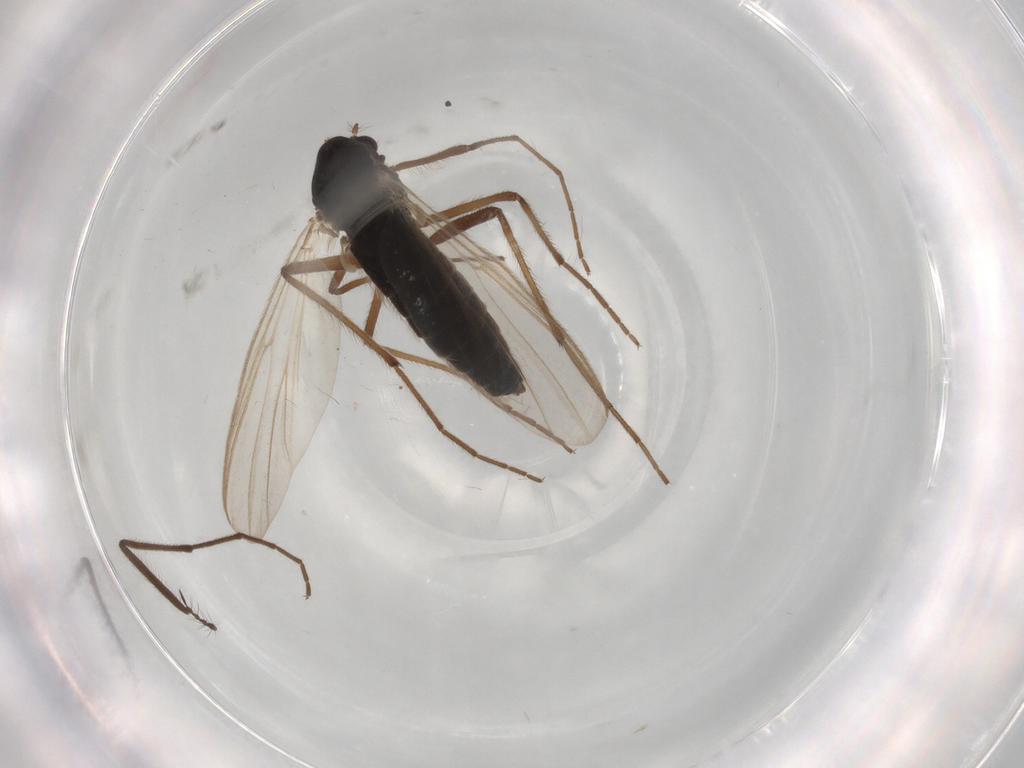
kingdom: Animalia
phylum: Arthropoda
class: Insecta
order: Diptera
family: Hybotidae
